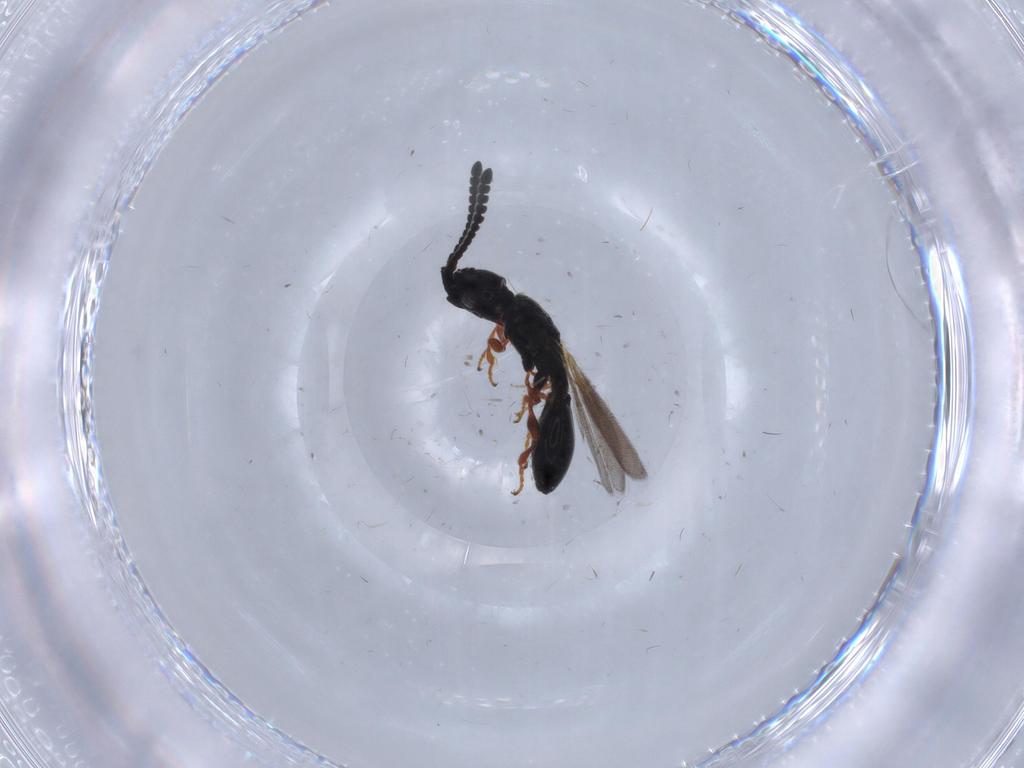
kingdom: Animalia
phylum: Arthropoda
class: Insecta
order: Hymenoptera
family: Diapriidae
